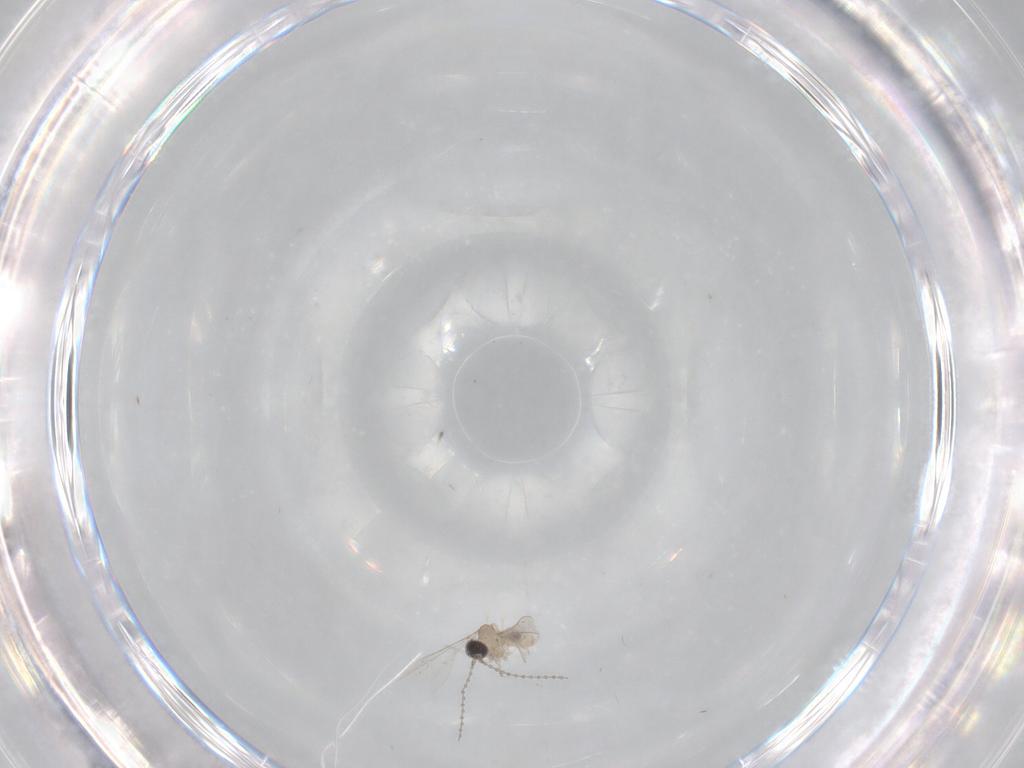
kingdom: Animalia
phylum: Arthropoda
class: Insecta
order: Diptera
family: Cecidomyiidae
